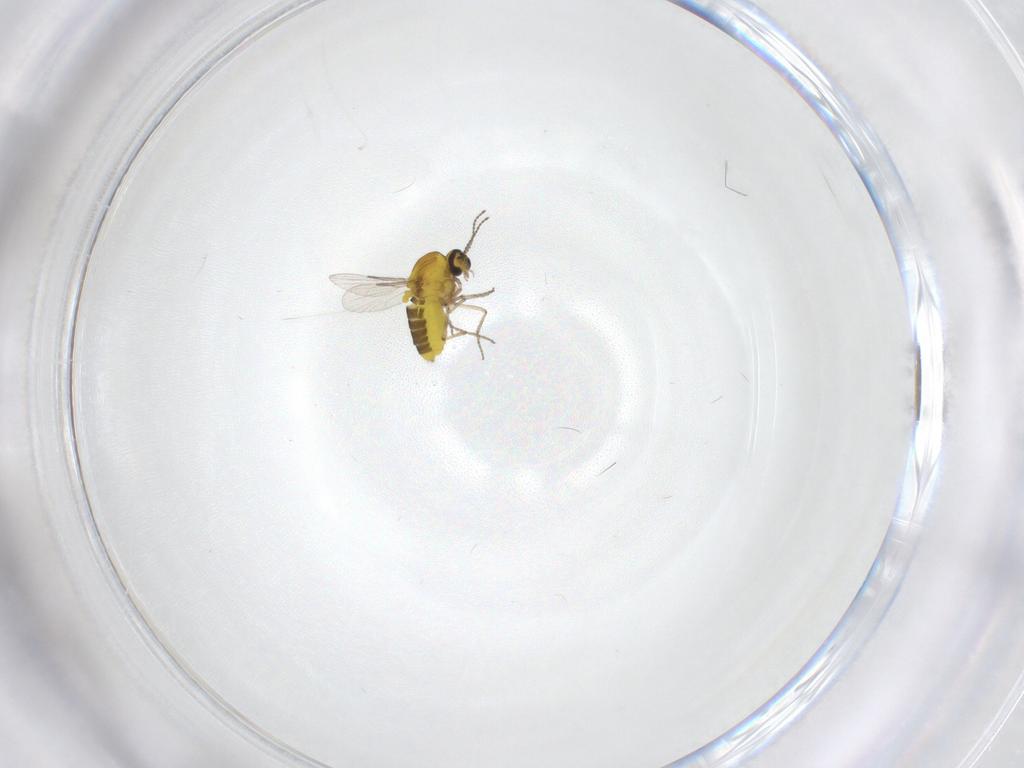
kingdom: Animalia
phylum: Arthropoda
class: Insecta
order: Diptera
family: Ceratopogonidae
